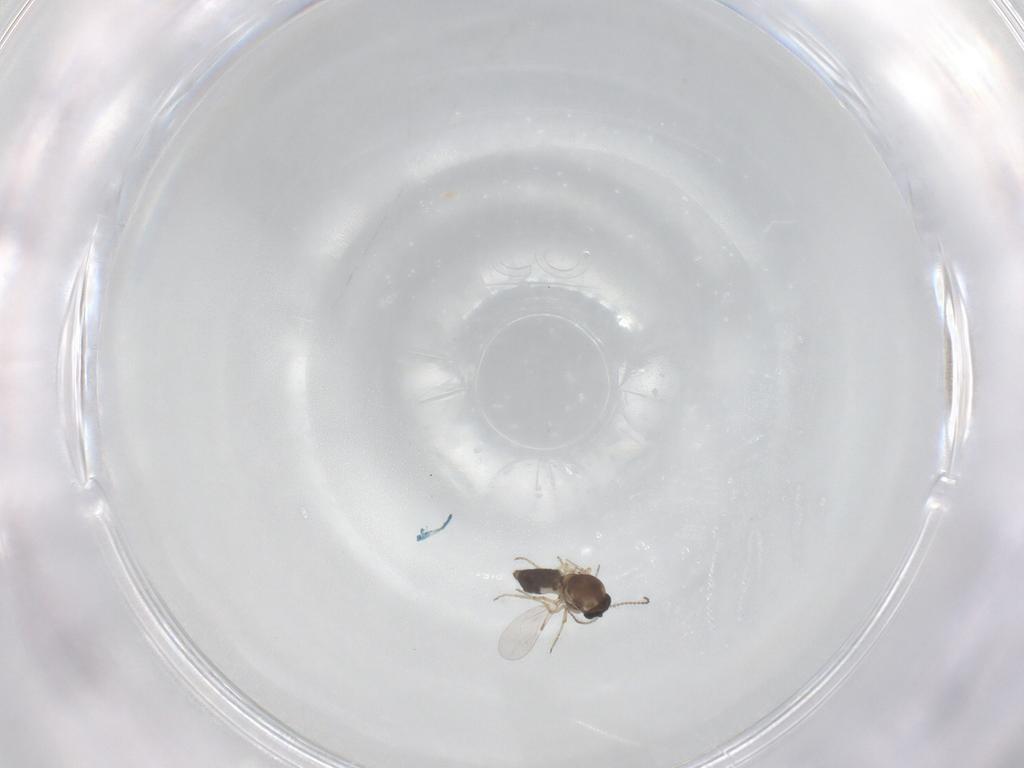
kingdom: Animalia
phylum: Arthropoda
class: Insecta
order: Diptera
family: Ceratopogonidae
